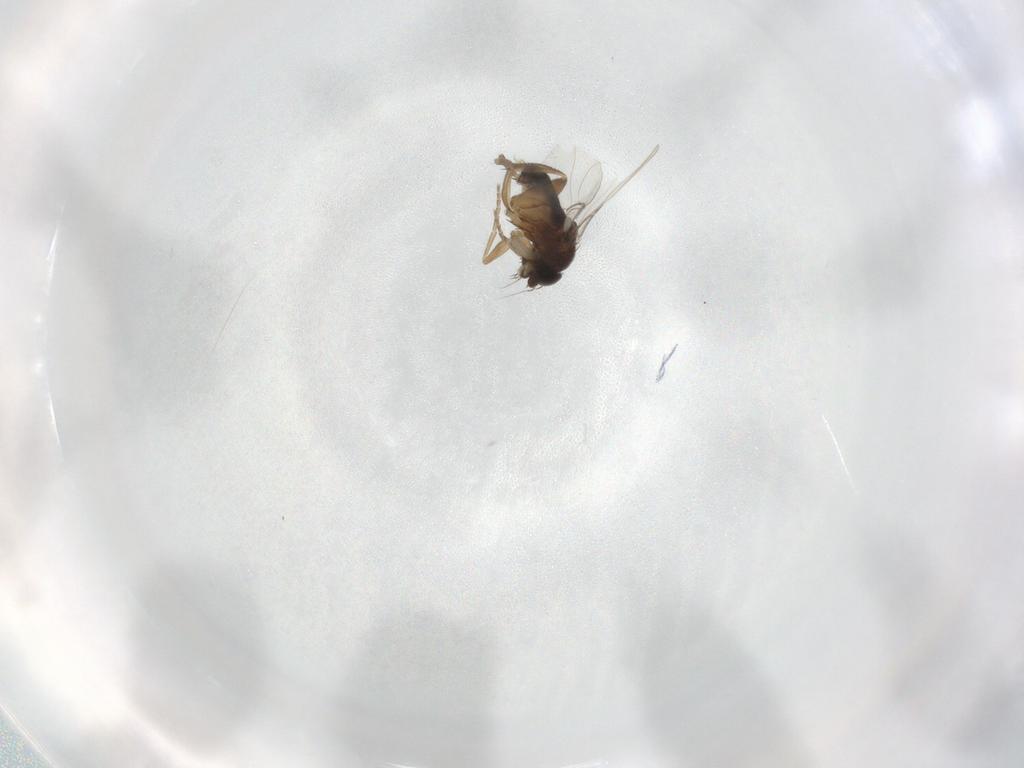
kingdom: Animalia
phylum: Arthropoda
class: Insecta
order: Diptera
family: Phoridae
